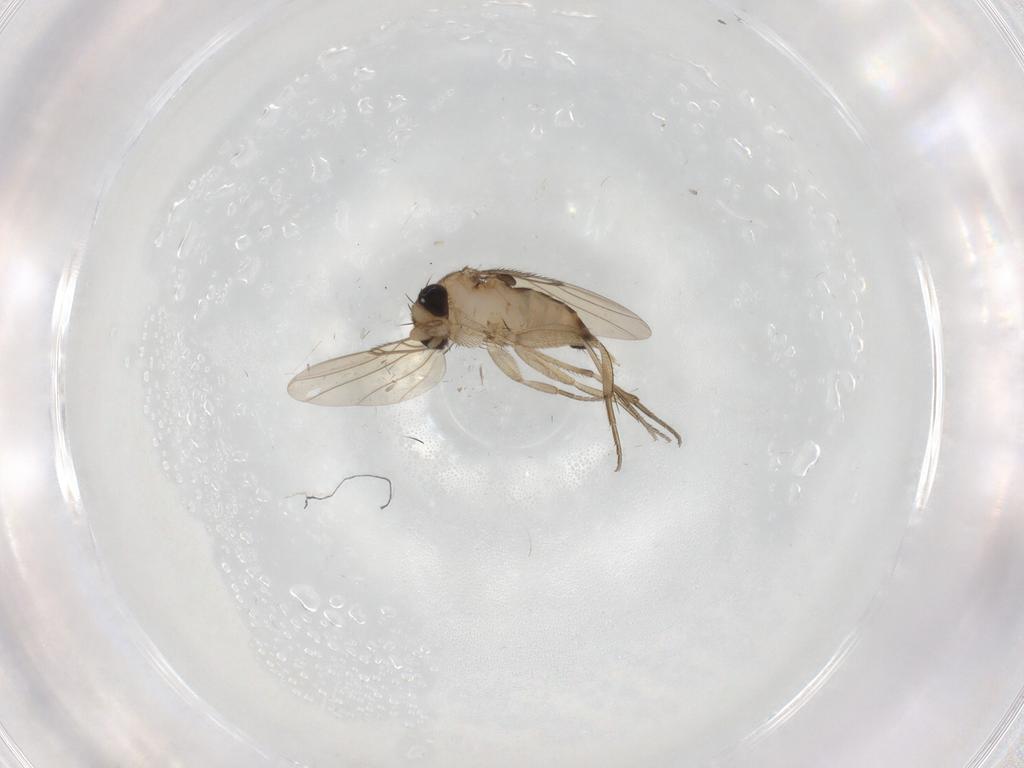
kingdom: Animalia
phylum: Arthropoda
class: Insecta
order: Diptera
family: Phoridae
